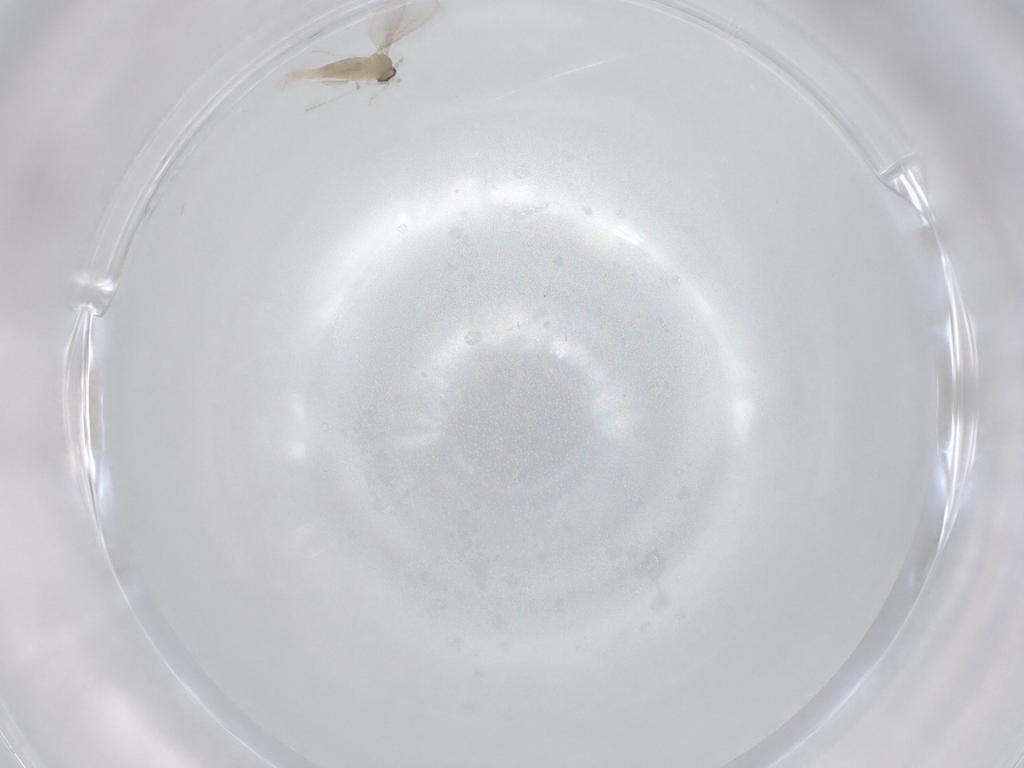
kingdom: Animalia
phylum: Arthropoda
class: Insecta
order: Diptera
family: Cecidomyiidae
